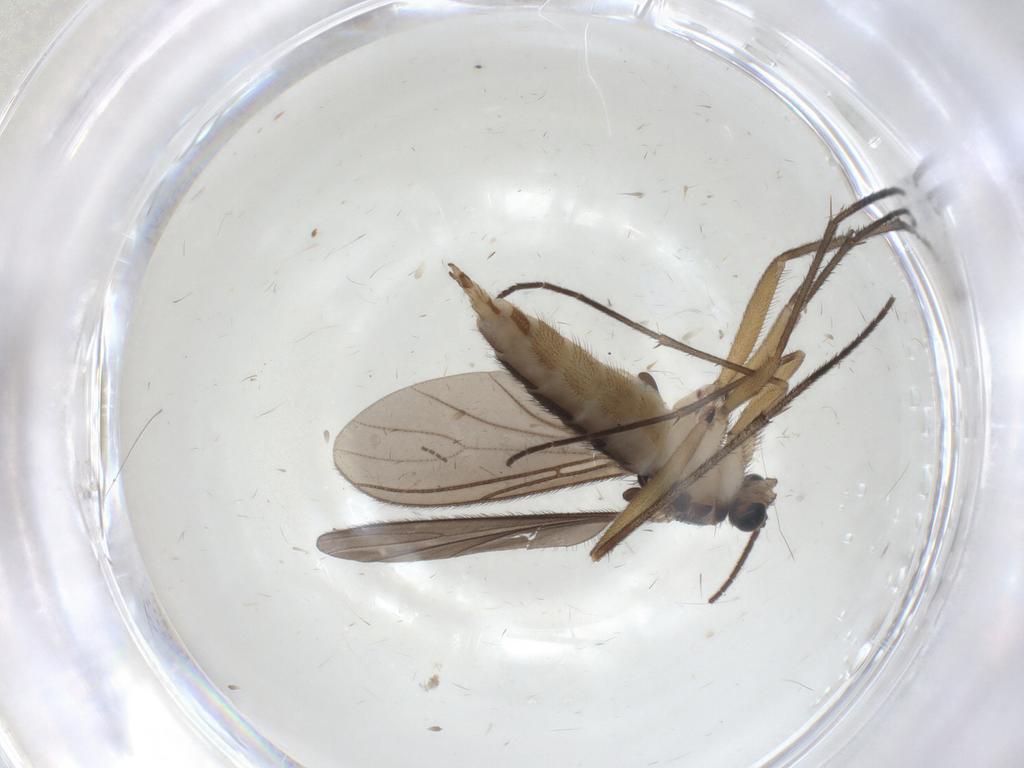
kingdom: Animalia
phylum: Arthropoda
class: Insecta
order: Diptera
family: Sciaridae
